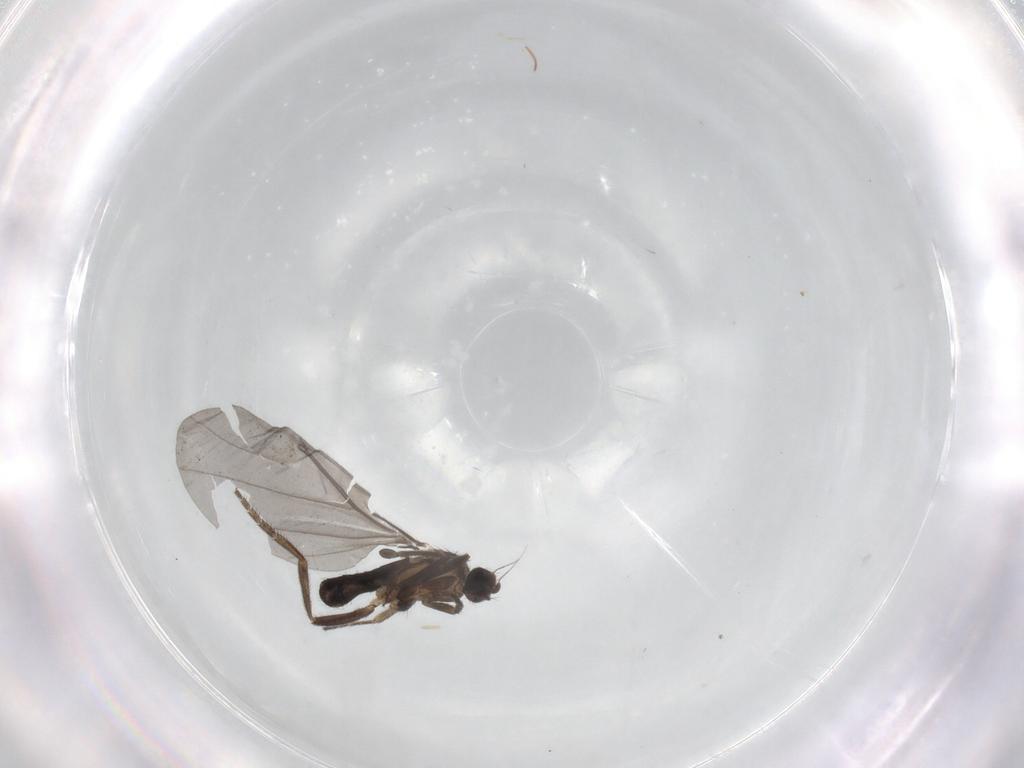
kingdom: Animalia
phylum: Arthropoda
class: Insecta
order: Diptera
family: Phoridae
